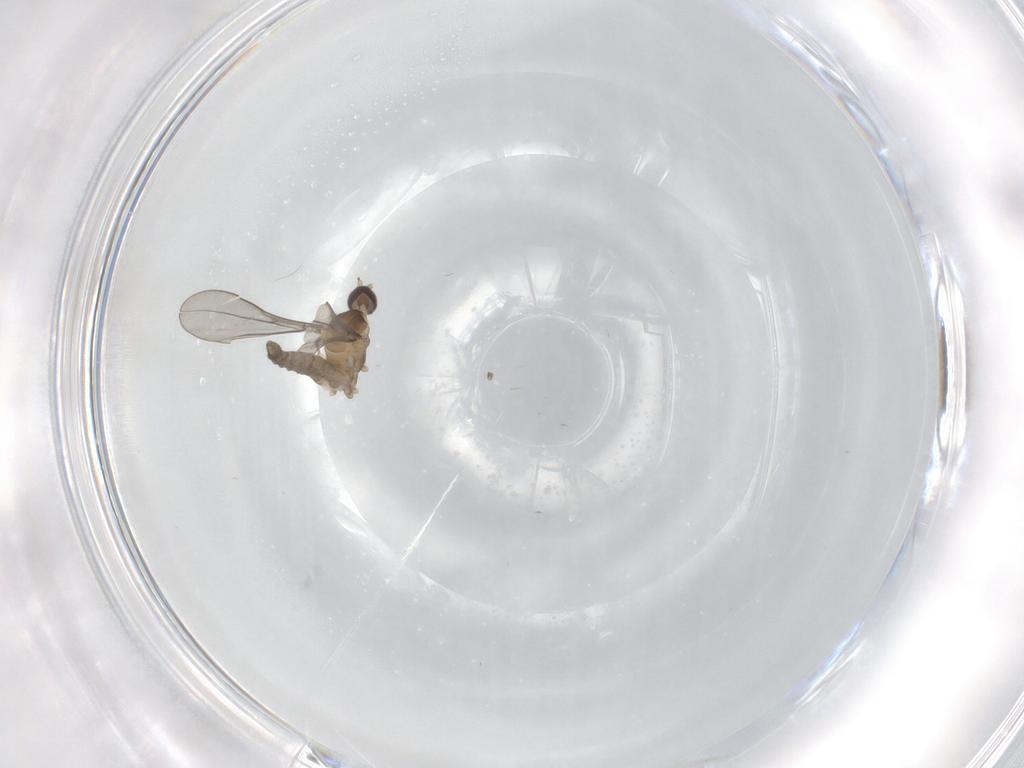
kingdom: Animalia
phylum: Arthropoda
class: Insecta
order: Diptera
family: Cecidomyiidae
